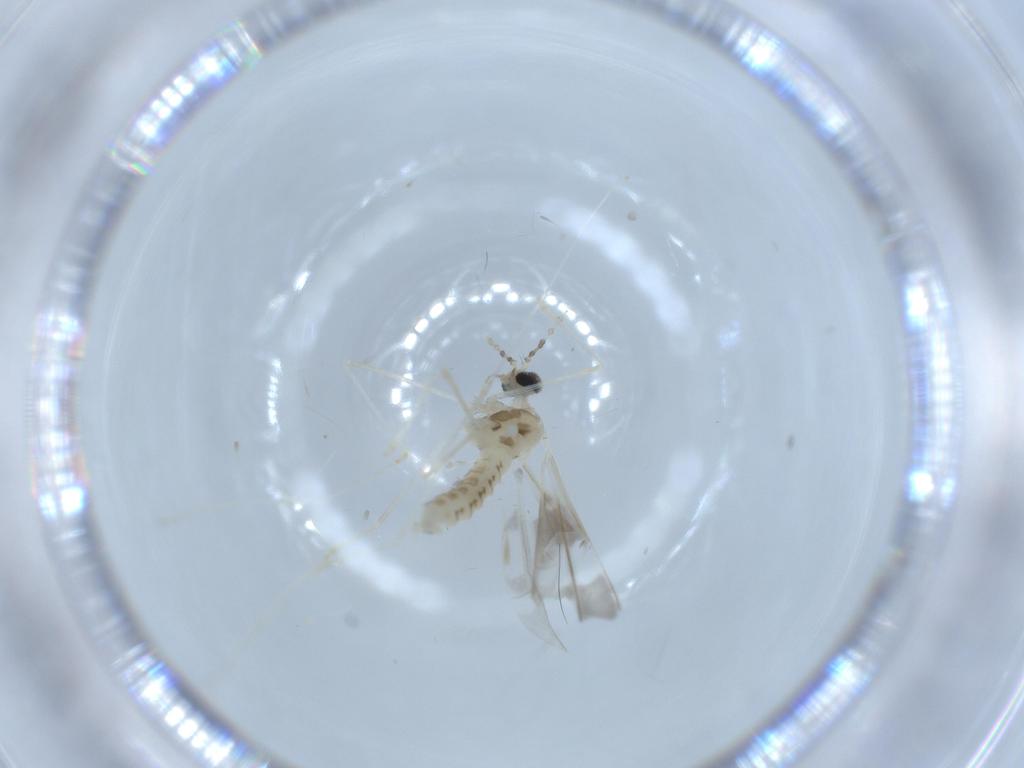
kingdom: Animalia
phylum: Arthropoda
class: Insecta
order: Diptera
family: Cecidomyiidae
